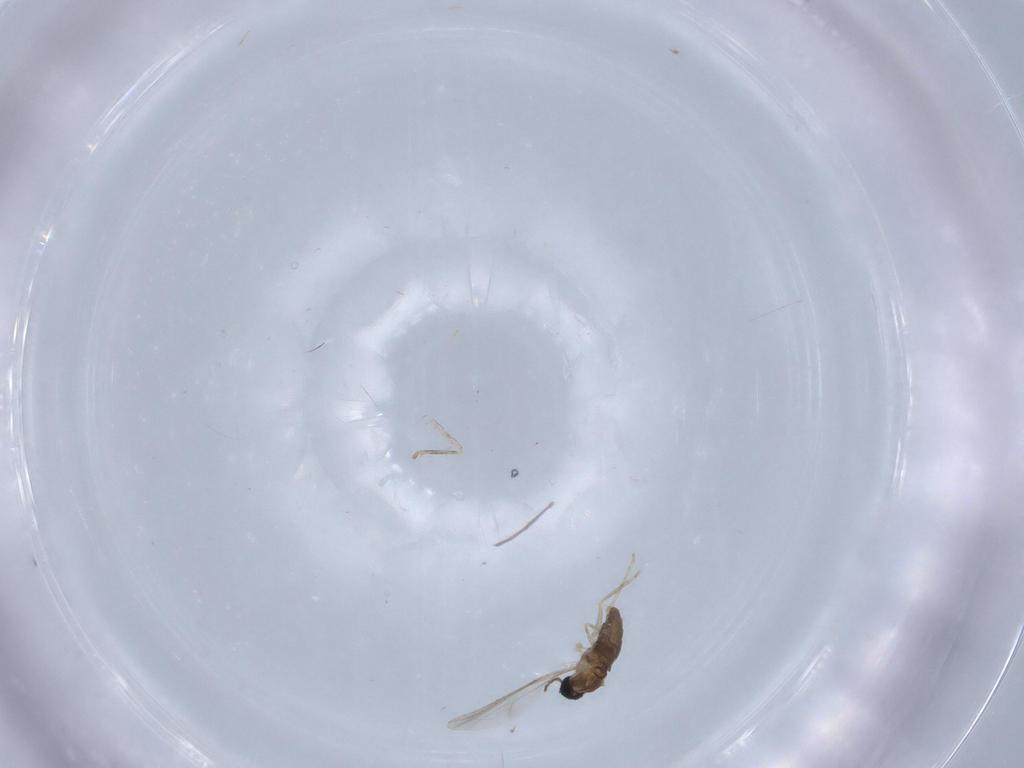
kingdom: Animalia
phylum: Arthropoda
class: Insecta
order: Diptera
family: Cecidomyiidae
